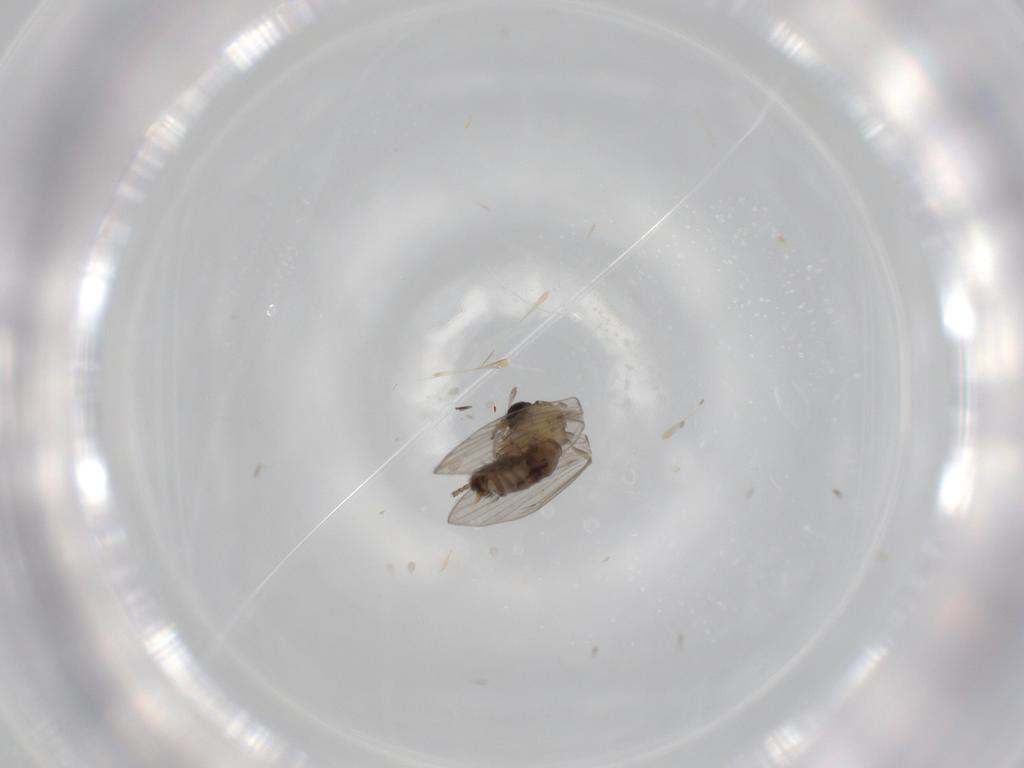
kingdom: Animalia
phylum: Arthropoda
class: Insecta
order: Diptera
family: Psychodidae
